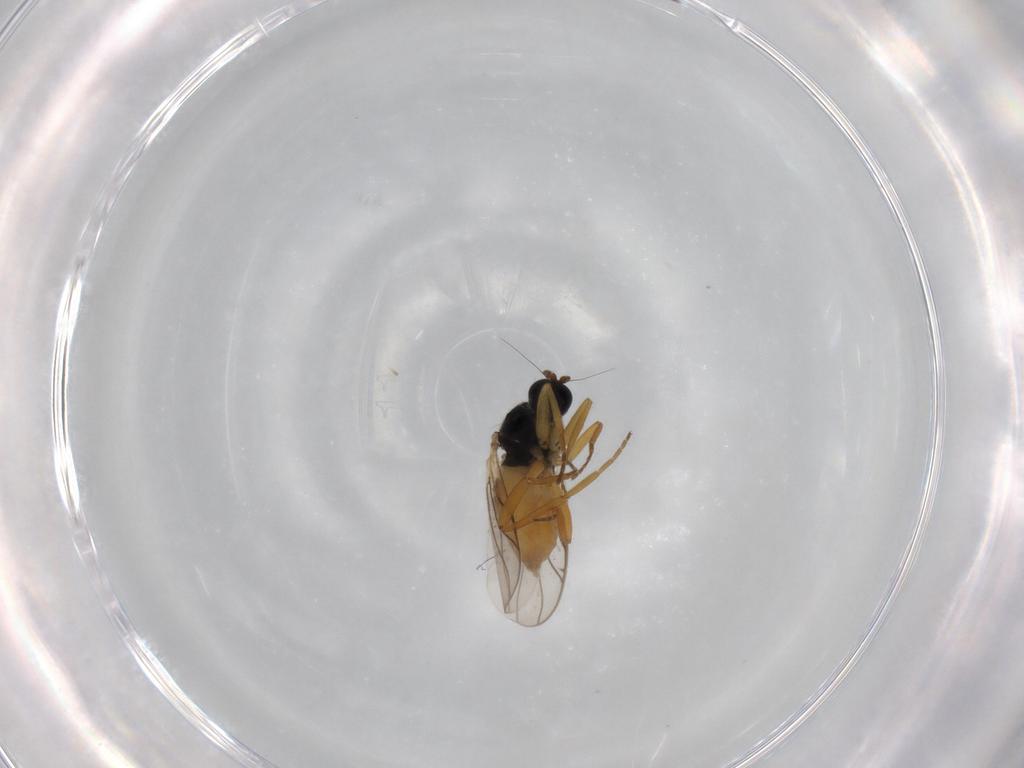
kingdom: Animalia
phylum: Arthropoda
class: Insecta
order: Diptera
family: Hybotidae
